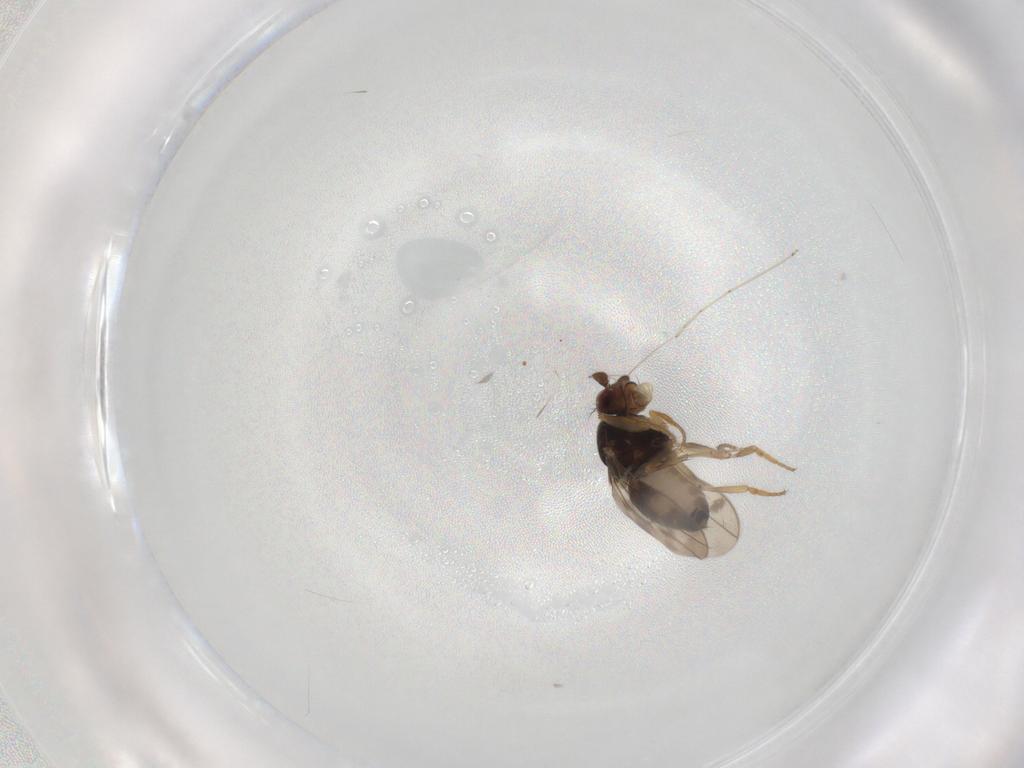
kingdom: Animalia
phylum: Arthropoda
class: Insecta
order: Diptera
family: Sphaeroceridae
